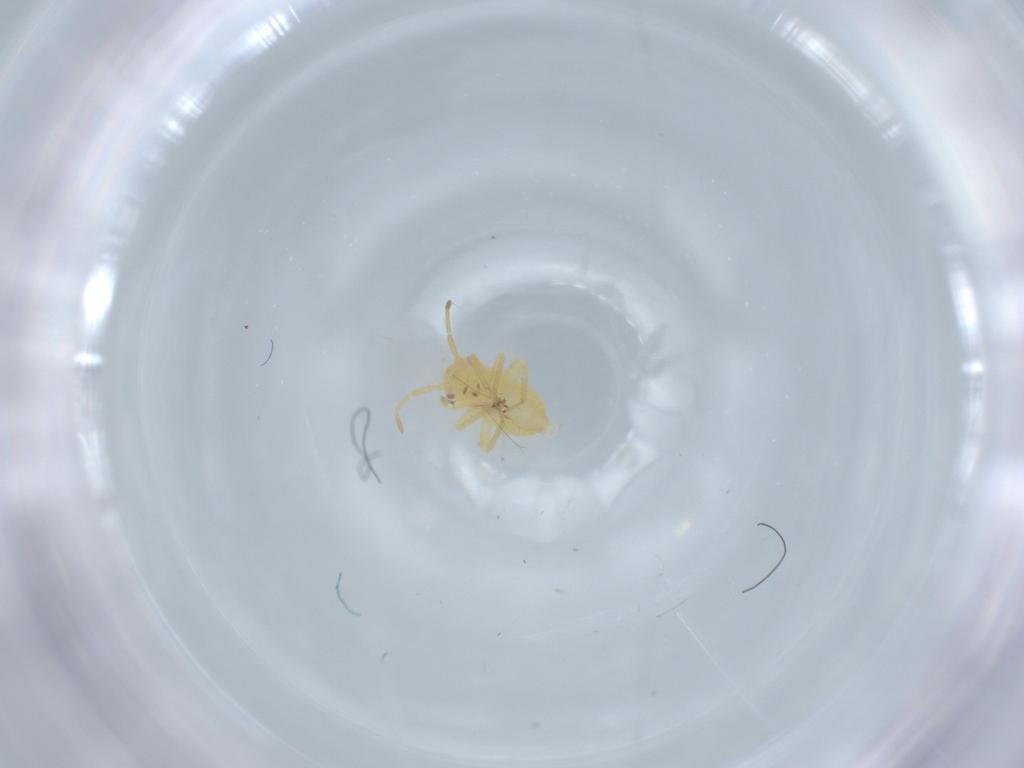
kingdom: Animalia
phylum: Arthropoda
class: Insecta
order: Hemiptera
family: Miridae
